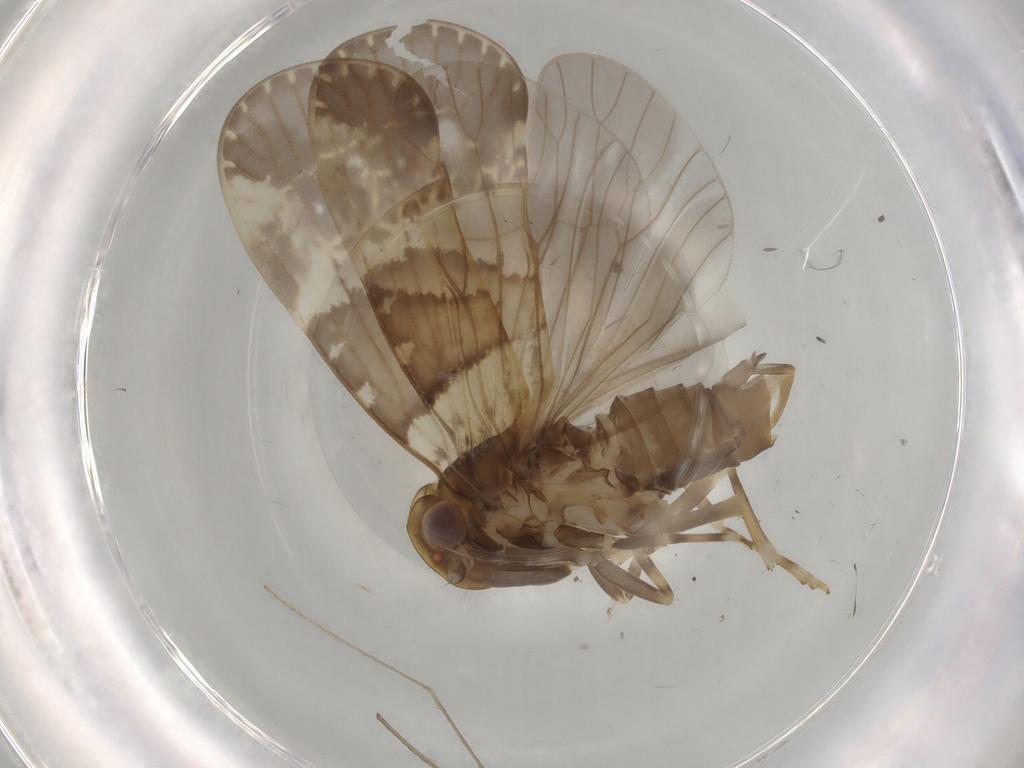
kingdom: Animalia
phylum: Arthropoda
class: Insecta
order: Hemiptera
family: Cixiidae
